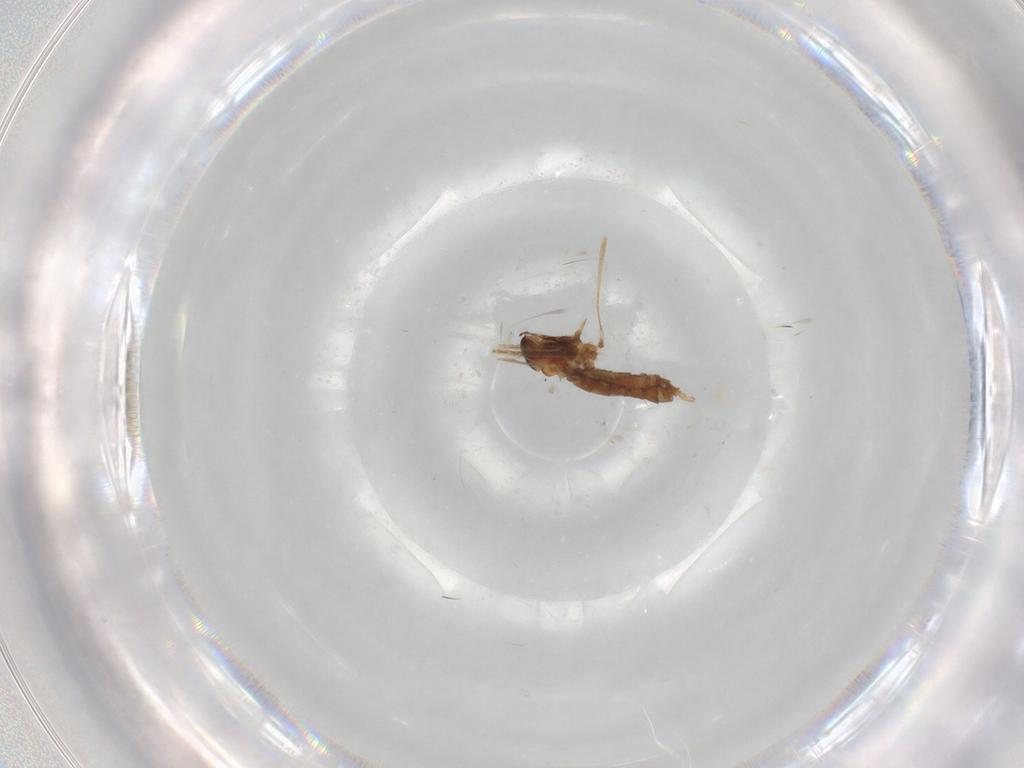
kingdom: Animalia
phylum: Arthropoda
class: Insecta
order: Diptera
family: Cecidomyiidae
